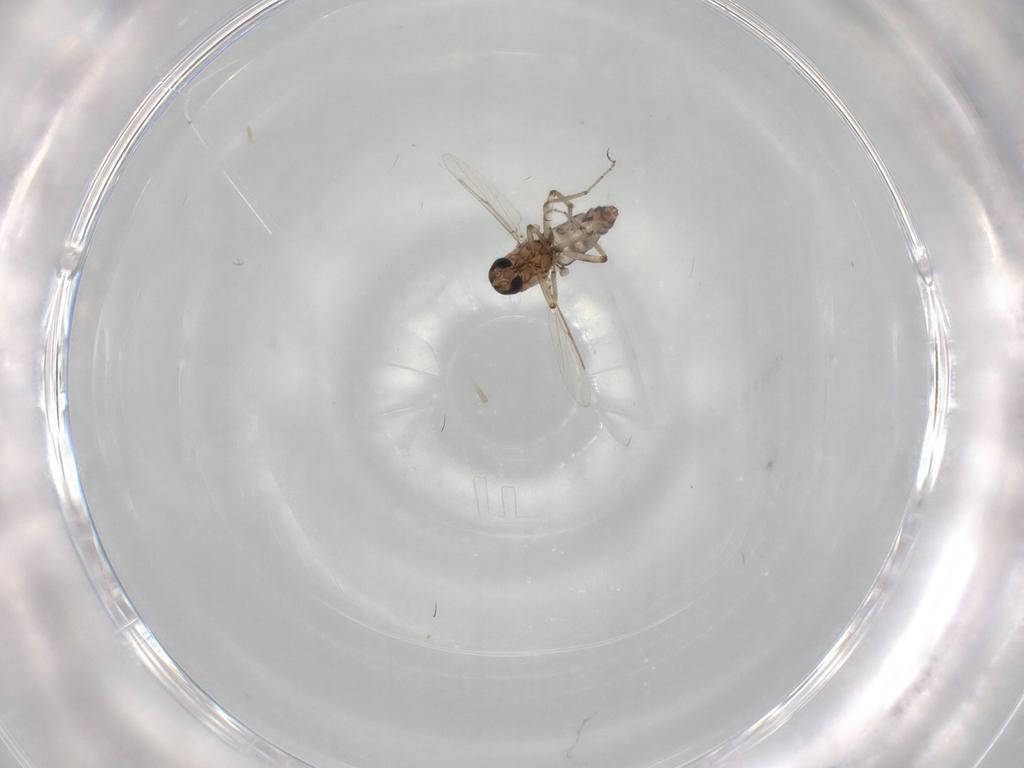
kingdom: Animalia
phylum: Arthropoda
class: Insecta
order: Diptera
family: Ceratopogonidae
